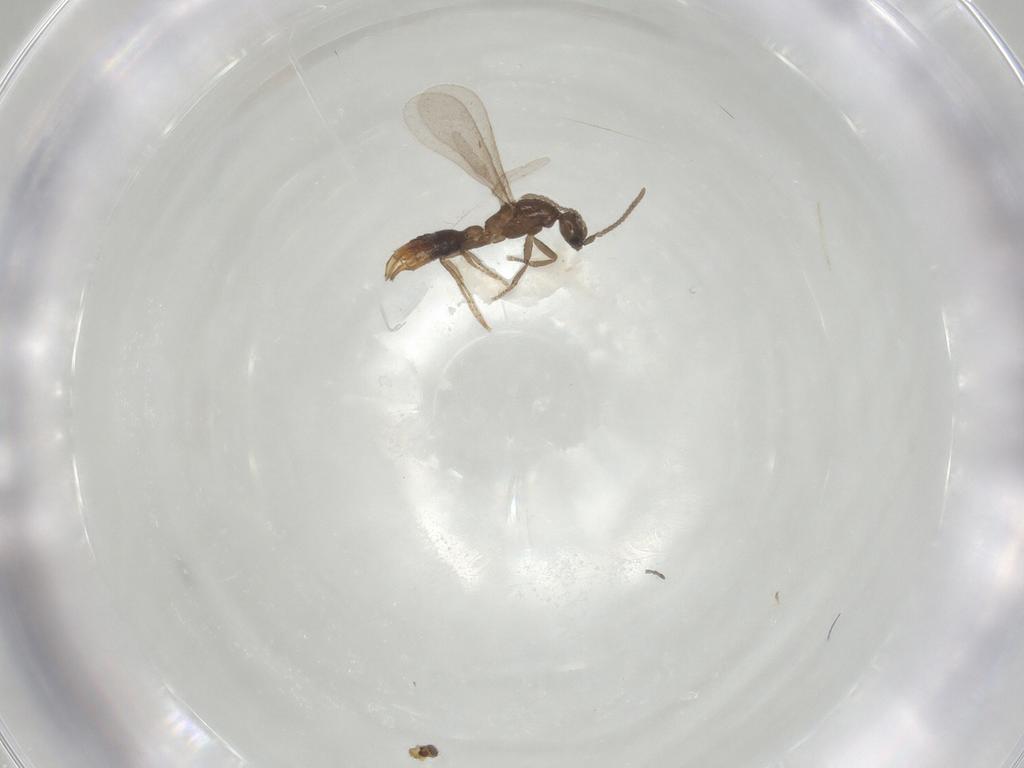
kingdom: Animalia
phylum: Arthropoda
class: Insecta
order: Hymenoptera
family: Formicidae
